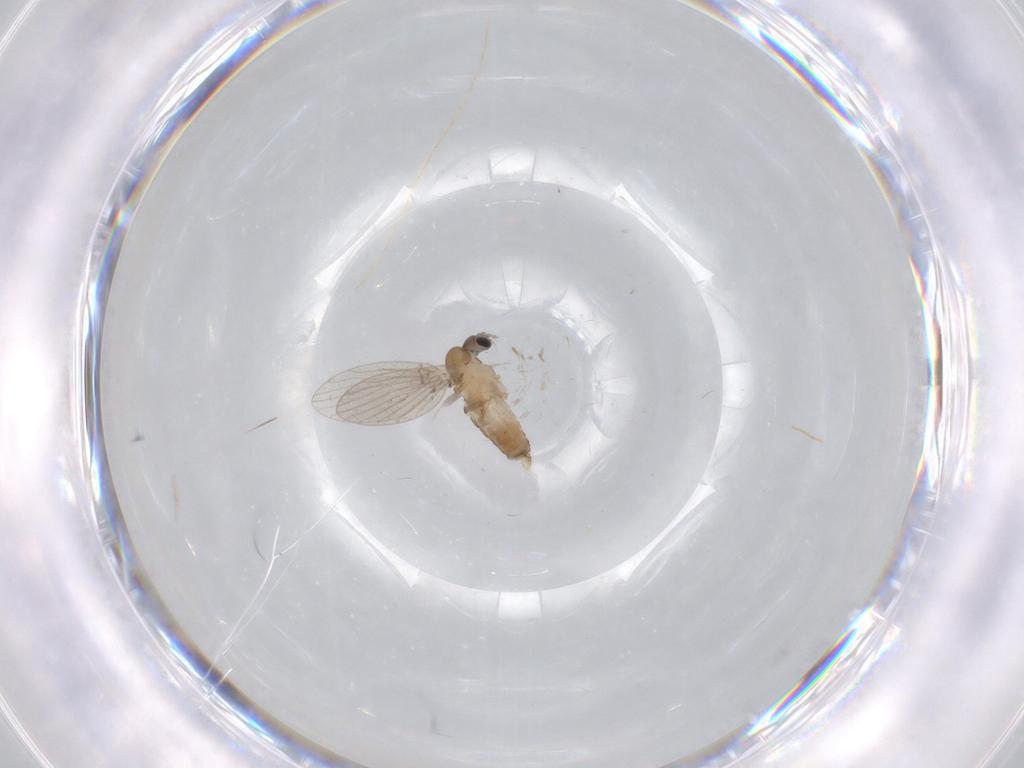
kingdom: Animalia
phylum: Arthropoda
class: Insecta
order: Diptera
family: Psychodidae
